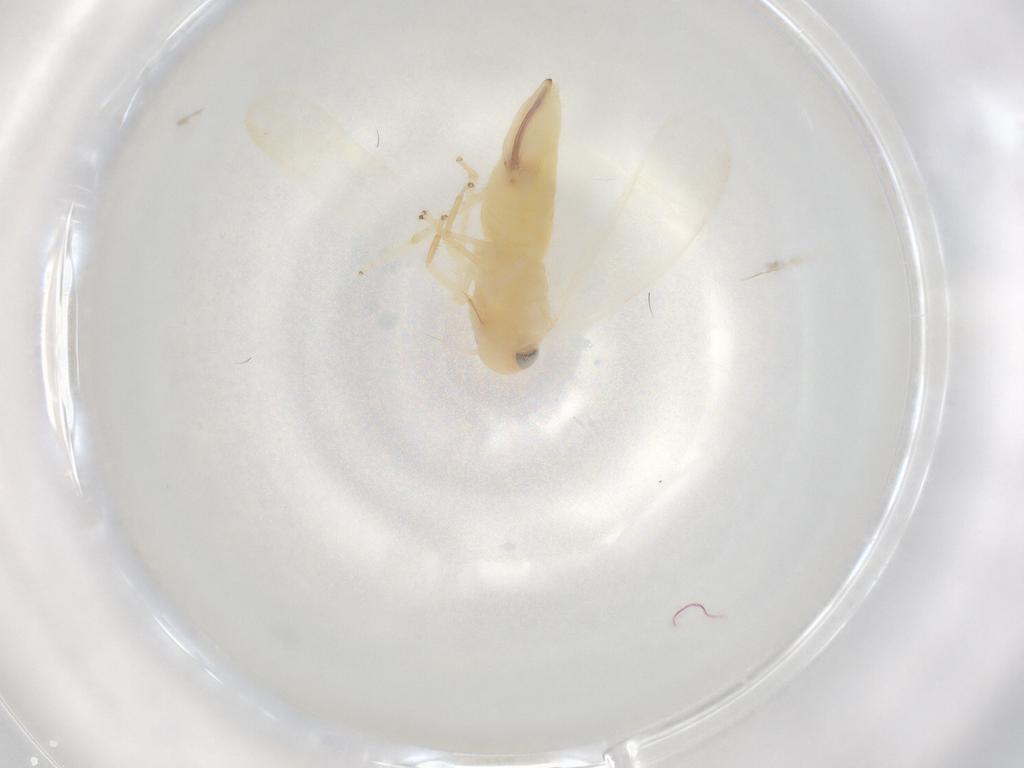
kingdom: Animalia
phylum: Arthropoda
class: Insecta
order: Hemiptera
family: Cicadellidae
